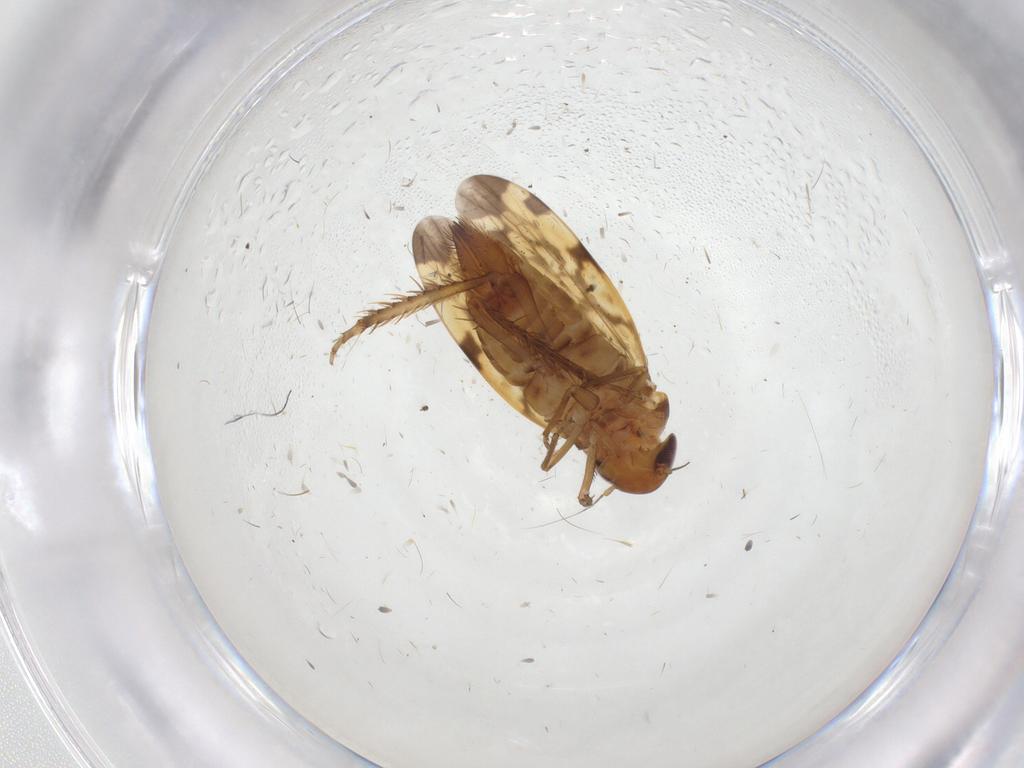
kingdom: Animalia
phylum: Arthropoda
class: Insecta
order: Hemiptera
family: Cicadellidae
